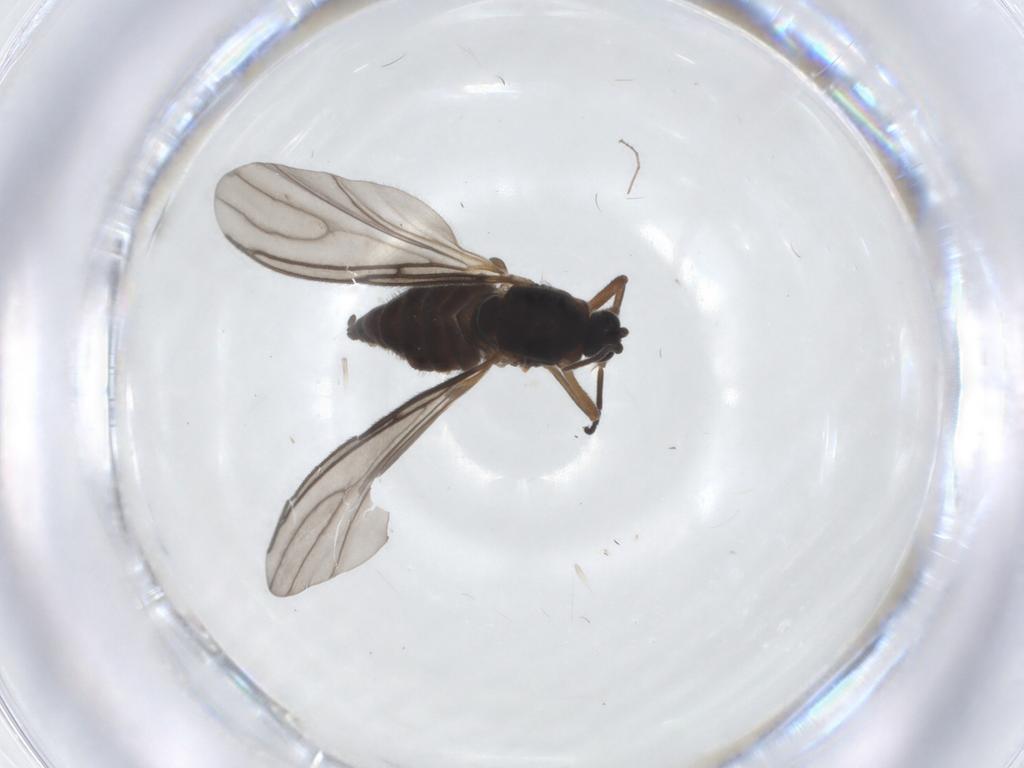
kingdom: Animalia
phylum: Arthropoda
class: Insecta
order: Diptera
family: Sciaridae
